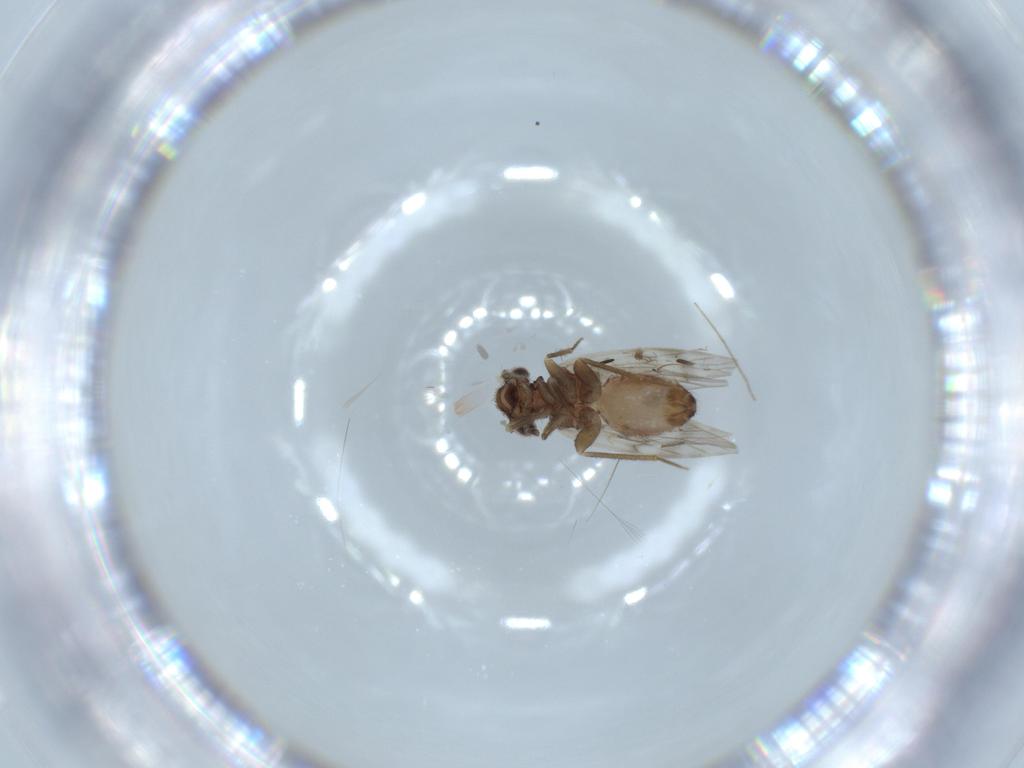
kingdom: Animalia
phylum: Arthropoda
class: Insecta
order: Psocodea
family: Lepidopsocidae
